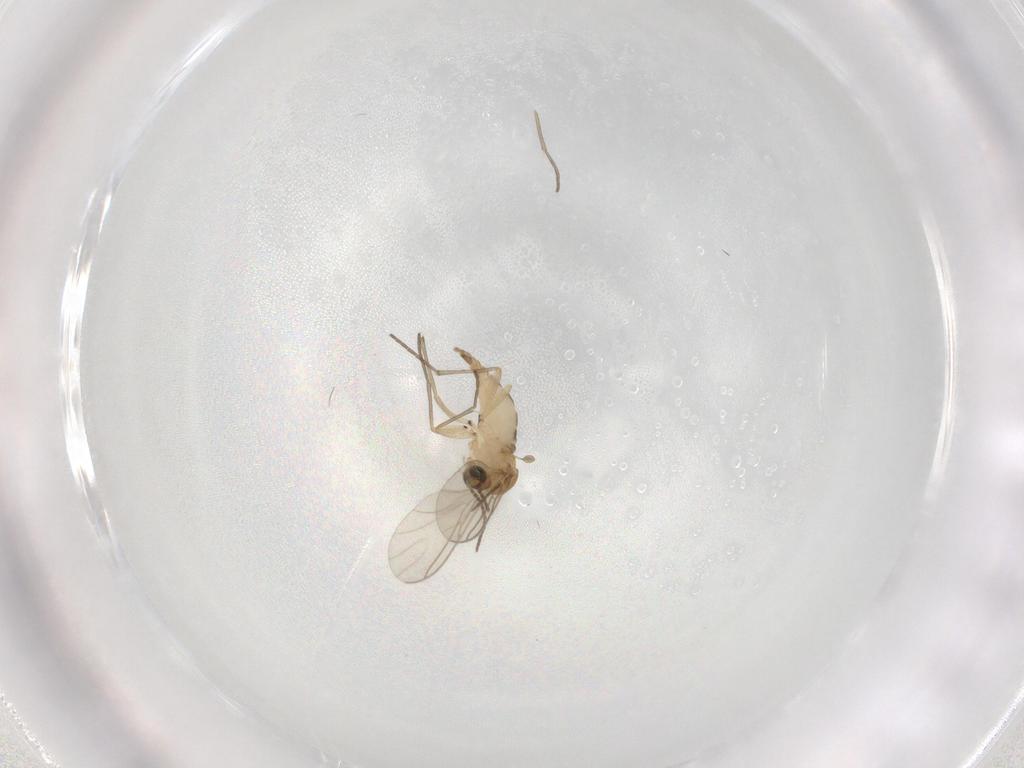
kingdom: Animalia
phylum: Arthropoda
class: Insecta
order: Diptera
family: Sciaridae
